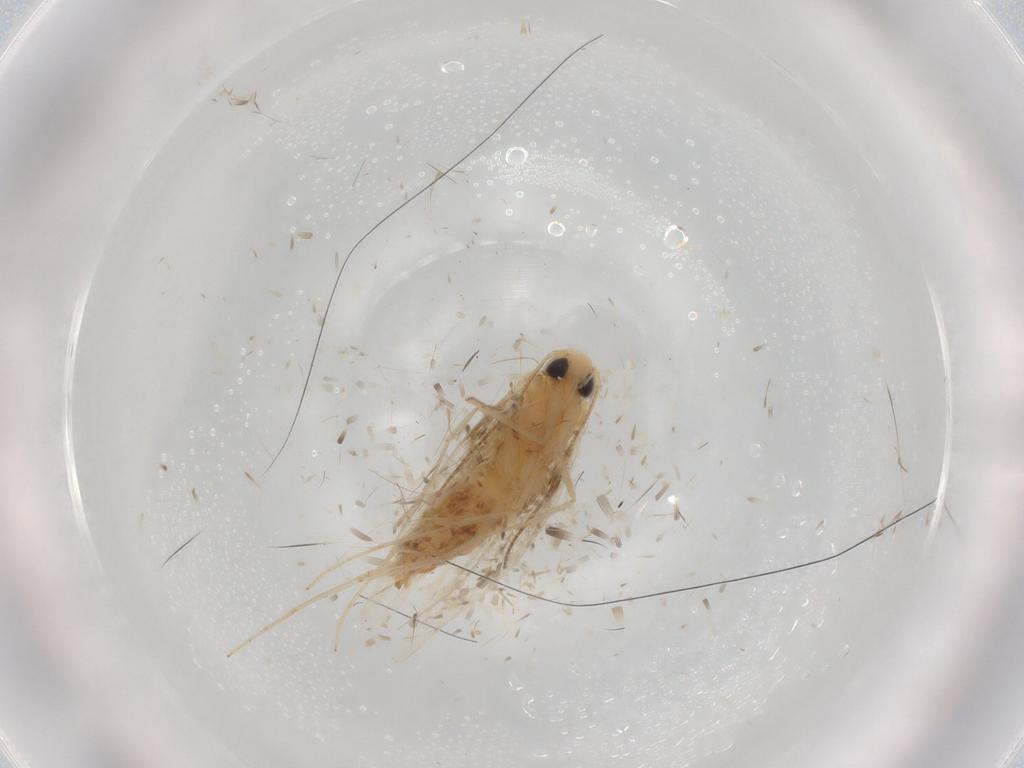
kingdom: Animalia
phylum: Arthropoda
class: Insecta
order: Lepidoptera
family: Tischeriidae
